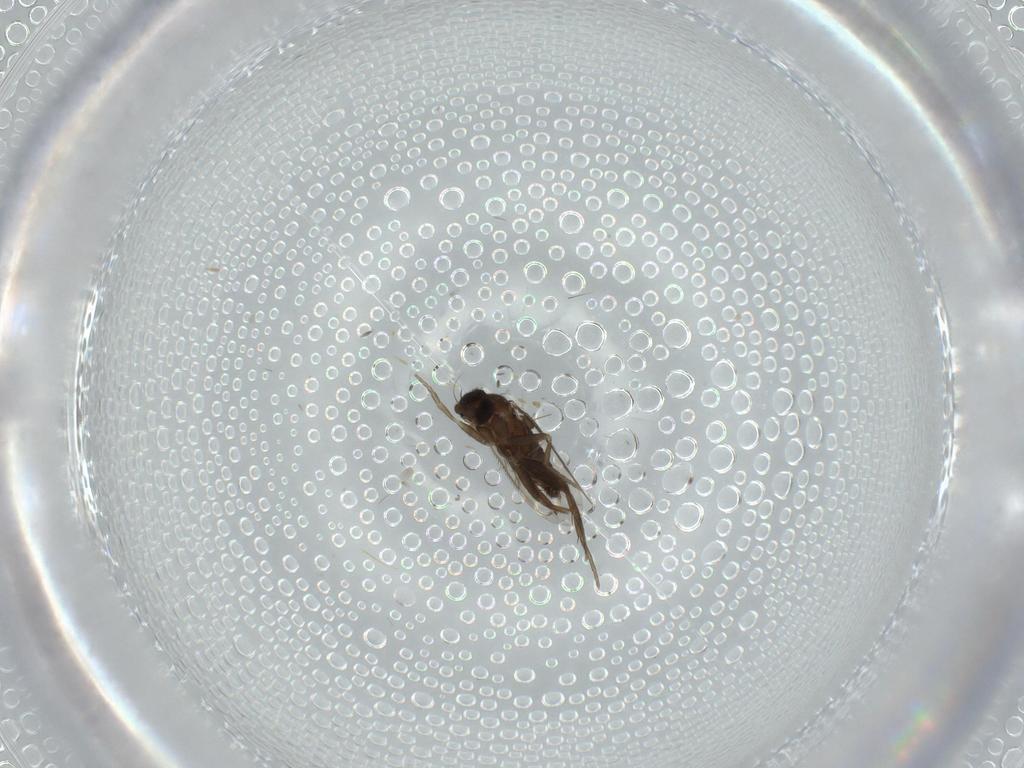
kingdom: Animalia
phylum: Arthropoda
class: Insecta
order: Diptera
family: Cecidomyiidae
